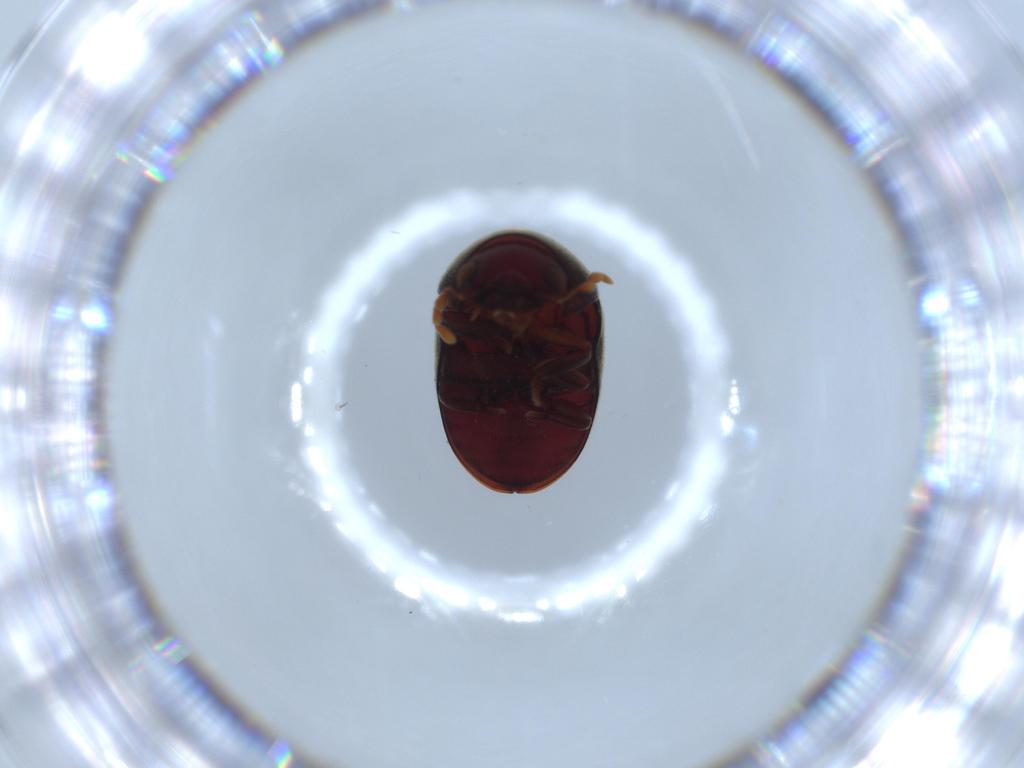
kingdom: Animalia
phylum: Arthropoda
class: Insecta
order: Coleoptera
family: Ptinidae
